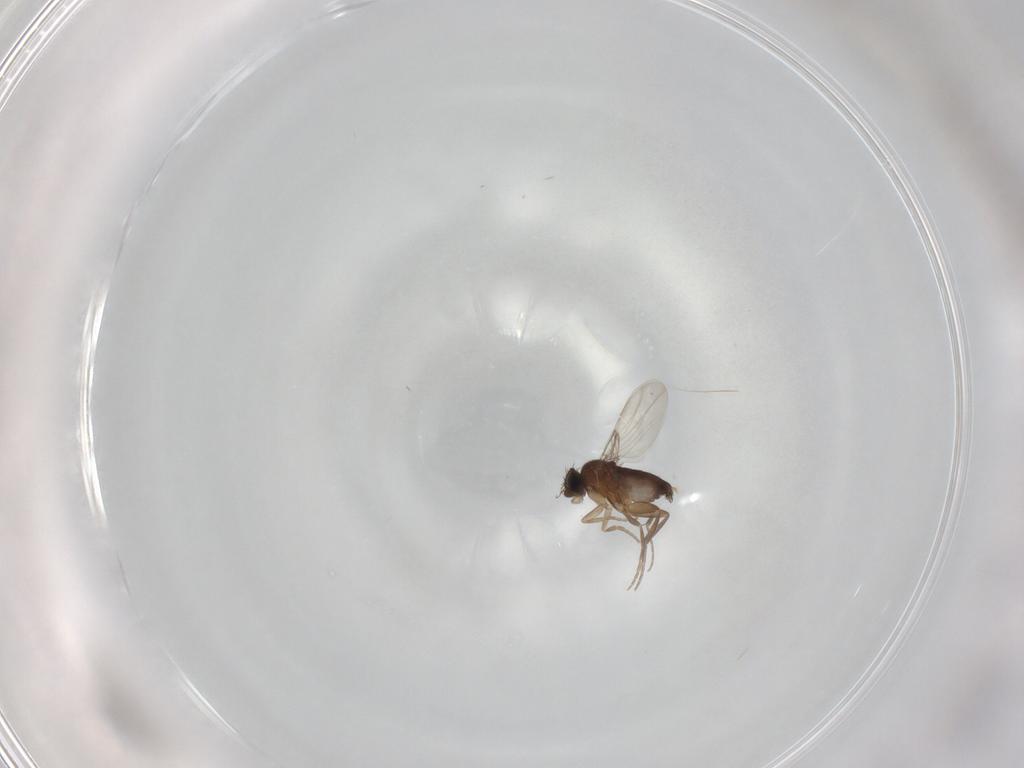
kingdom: Animalia
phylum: Arthropoda
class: Insecta
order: Diptera
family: Phoridae
